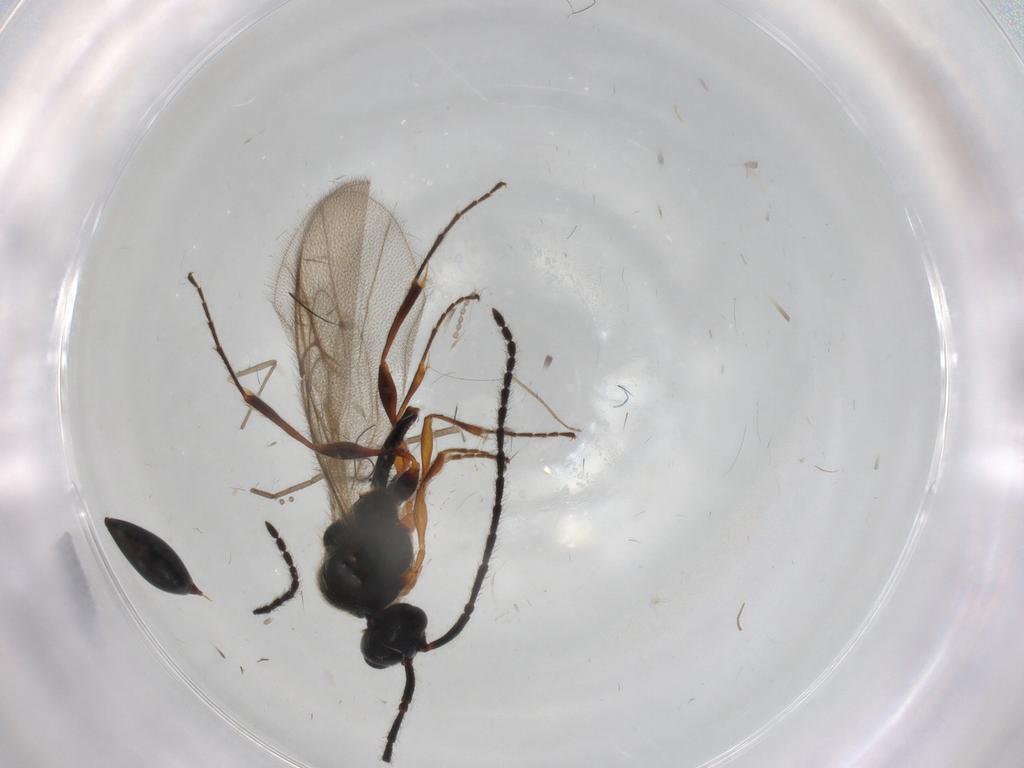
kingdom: Animalia
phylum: Arthropoda
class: Insecta
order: Hymenoptera
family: Diapriidae
